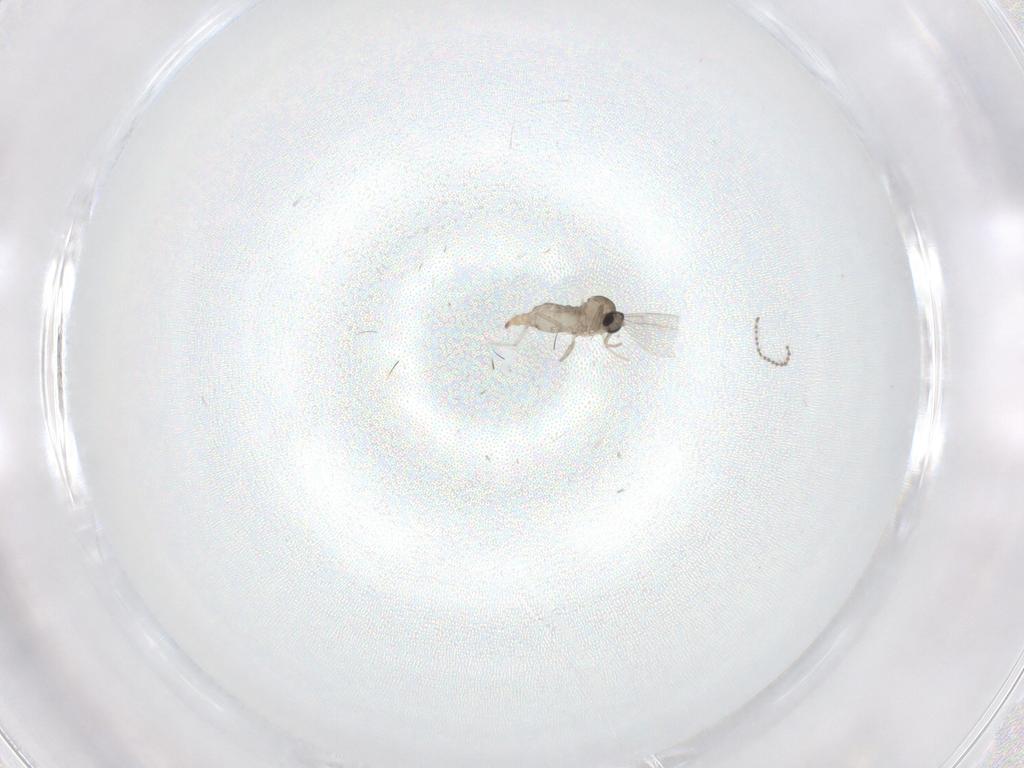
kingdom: Animalia
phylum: Arthropoda
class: Insecta
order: Diptera
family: Cecidomyiidae
